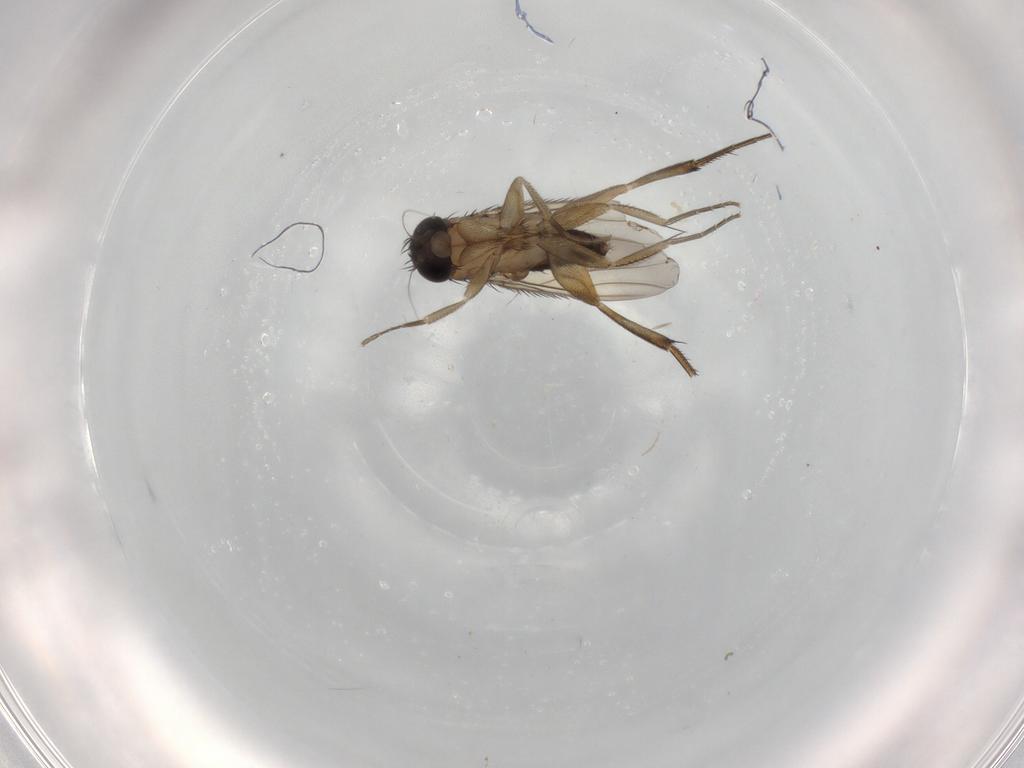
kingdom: Animalia
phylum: Arthropoda
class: Insecta
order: Diptera
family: Phoridae
